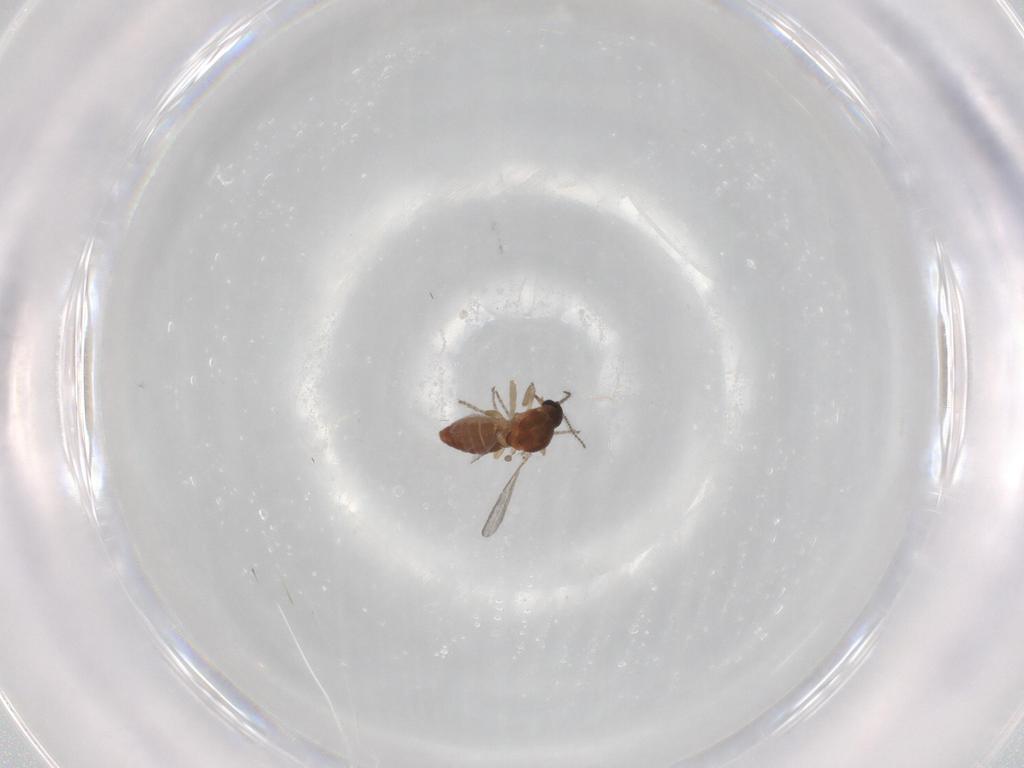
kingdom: Animalia
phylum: Arthropoda
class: Insecta
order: Diptera
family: Ceratopogonidae
